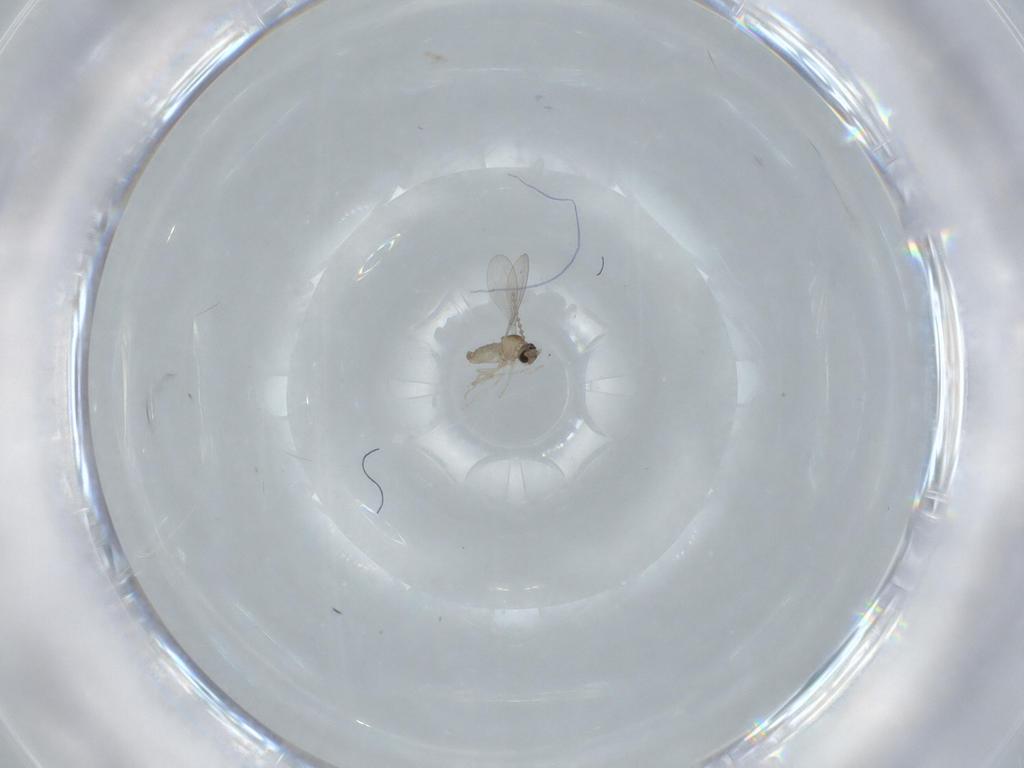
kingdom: Animalia
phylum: Arthropoda
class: Insecta
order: Diptera
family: Cecidomyiidae
